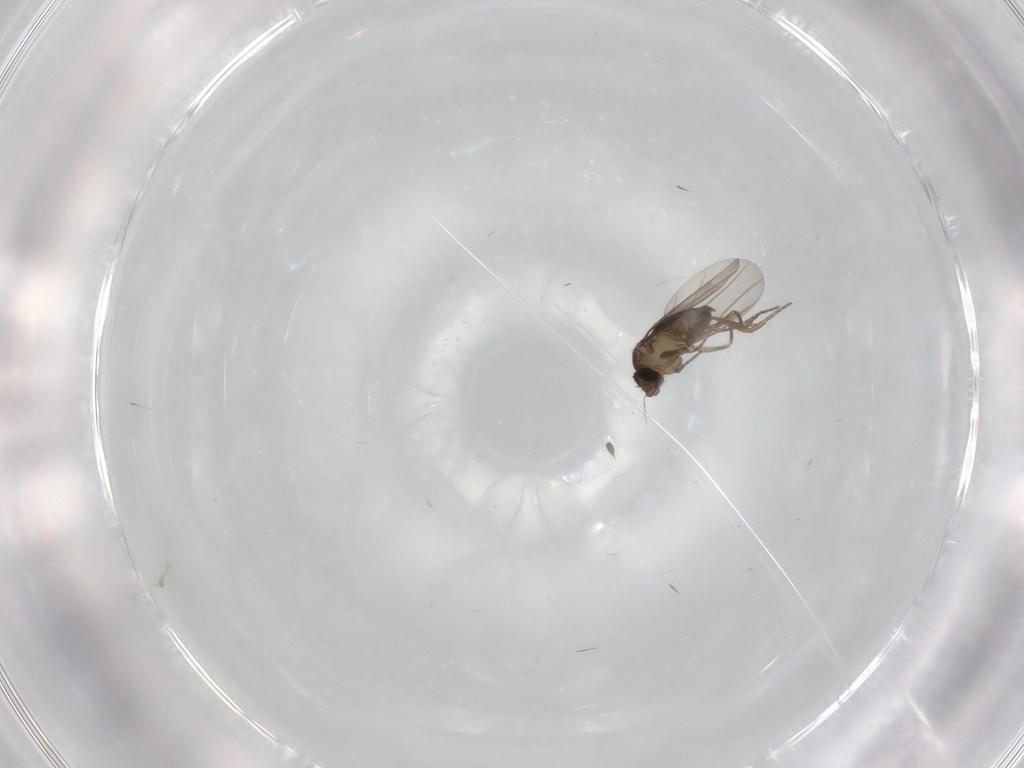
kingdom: Animalia
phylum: Arthropoda
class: Insecta
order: Diptera
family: Phoridae
